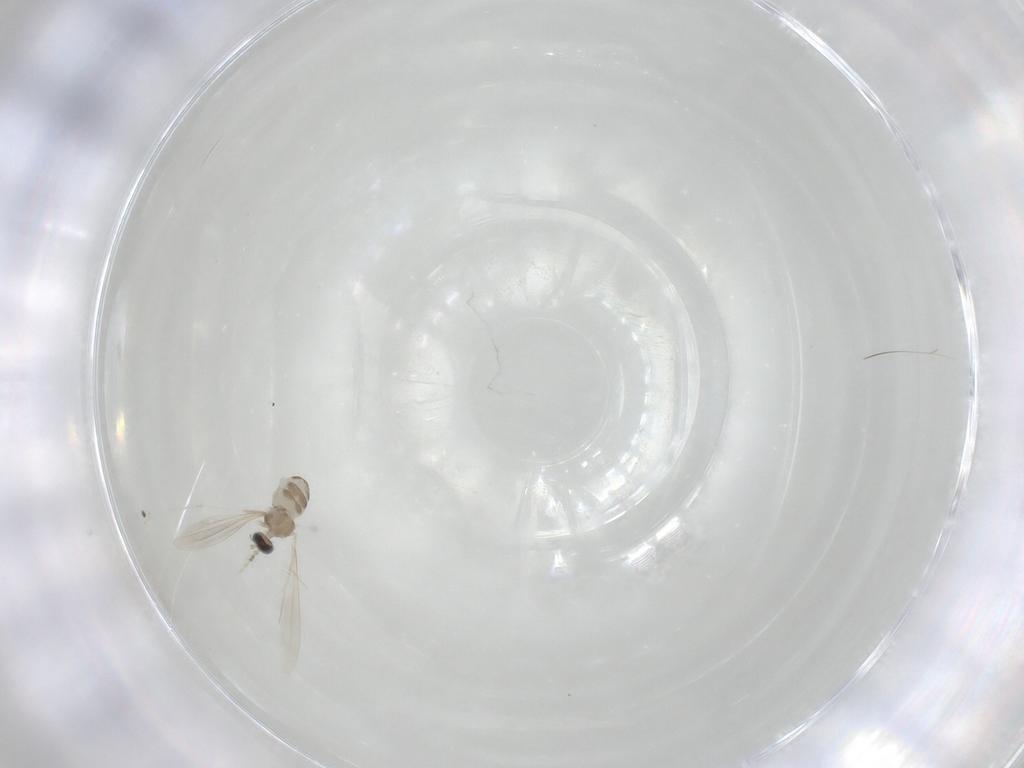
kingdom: Animalia
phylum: Arthropoda
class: Insecta
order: Diptera
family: Cecidomyiidae
